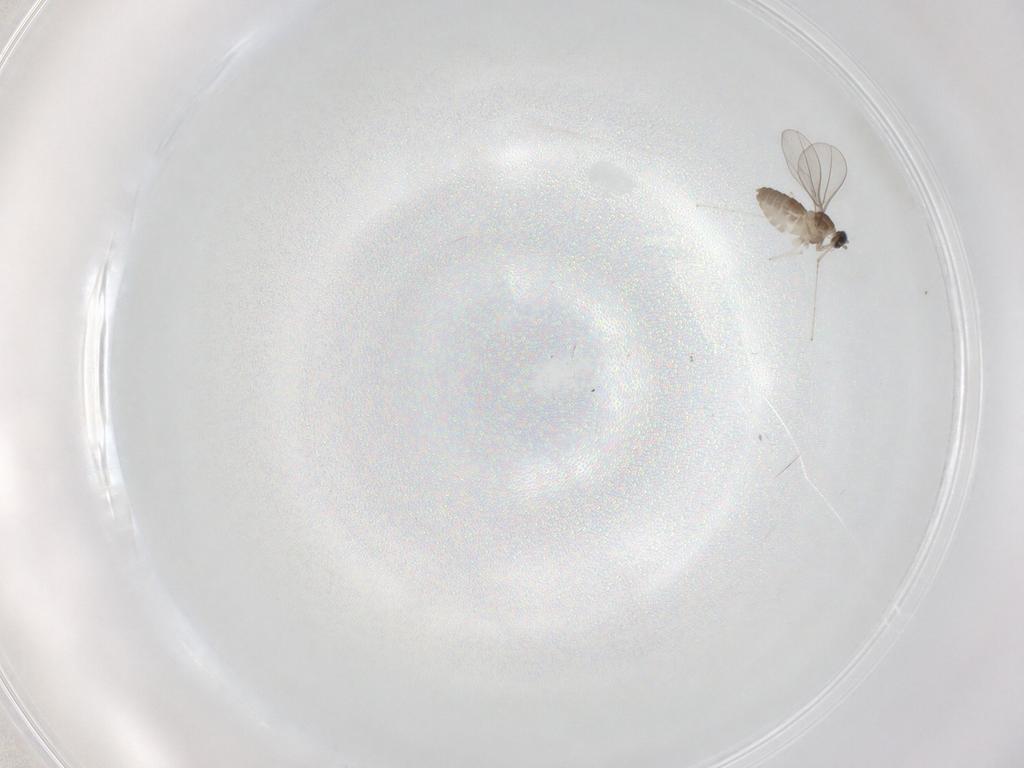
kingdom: Animalia
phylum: Arthropoda
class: Insecta
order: Diptera
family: Cecidomyiidae
